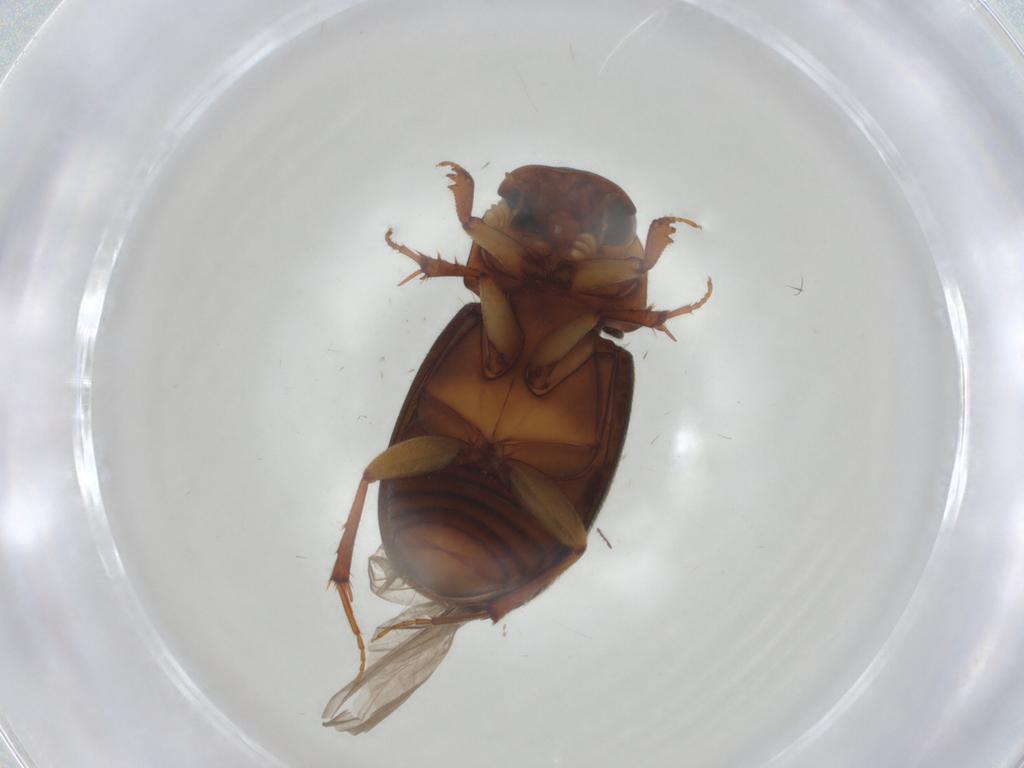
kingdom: Animalia
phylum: Arthropoda
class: Insecta
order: Coleoptera
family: Scarabaeidae
